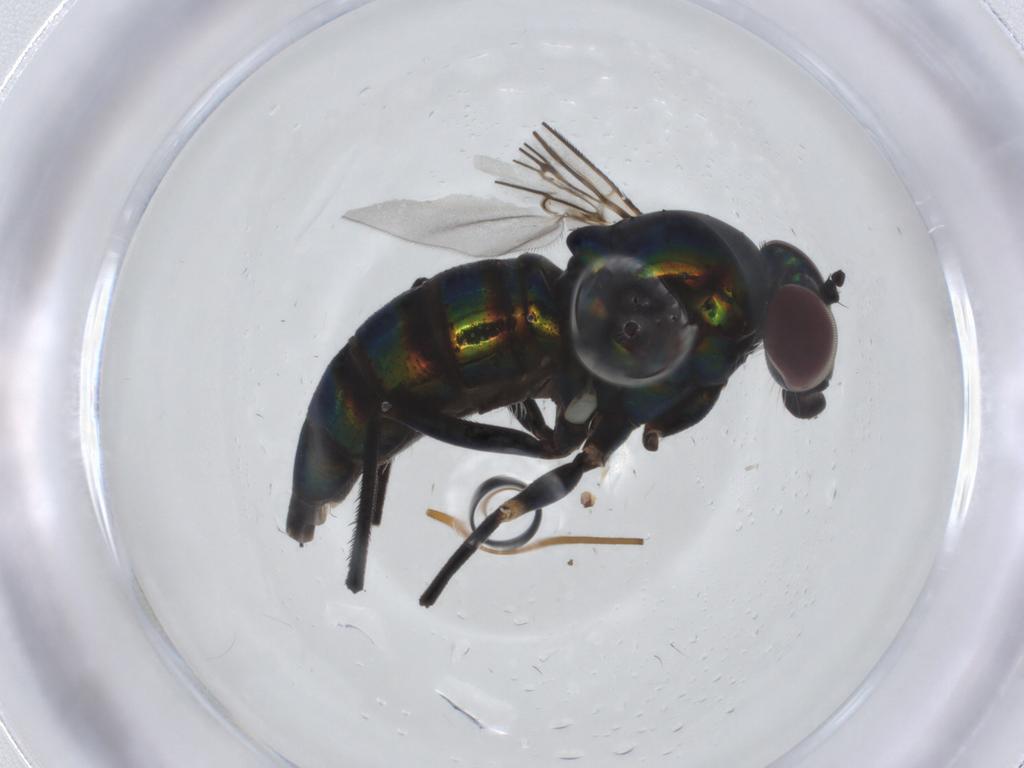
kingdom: Animalia
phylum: Arthropoda
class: Insecta
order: Diptera
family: Dolichopodidae
